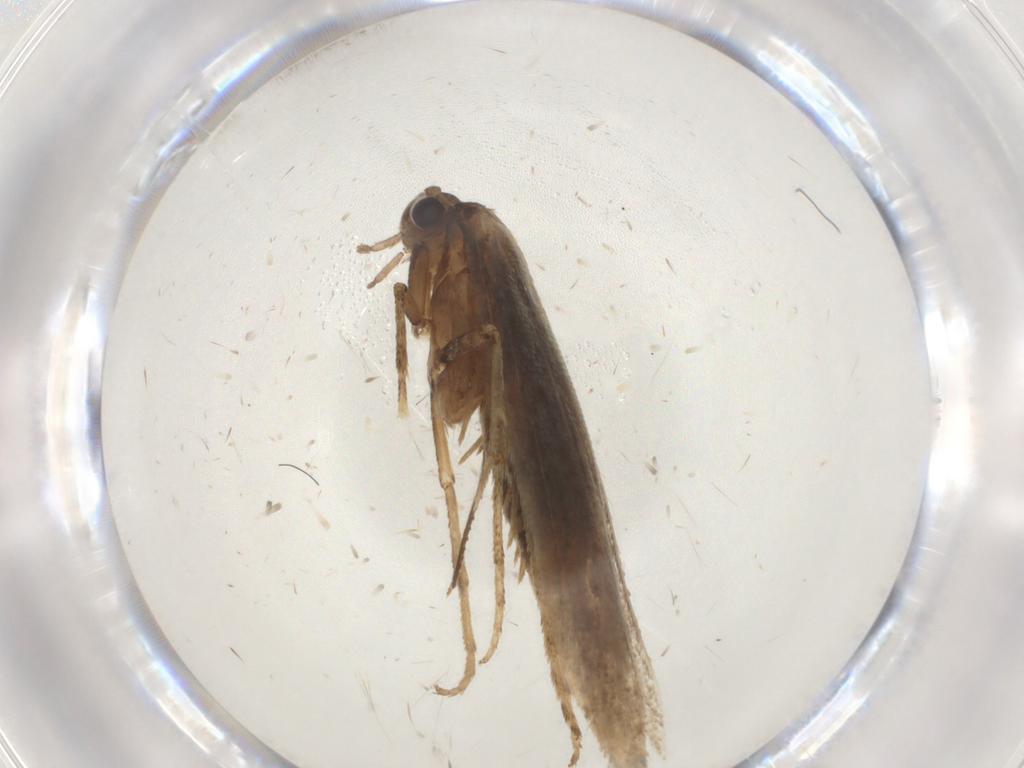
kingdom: Animalia
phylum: Arthropoda
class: Insecta
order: Lepidoptera
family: Epermeniidae
